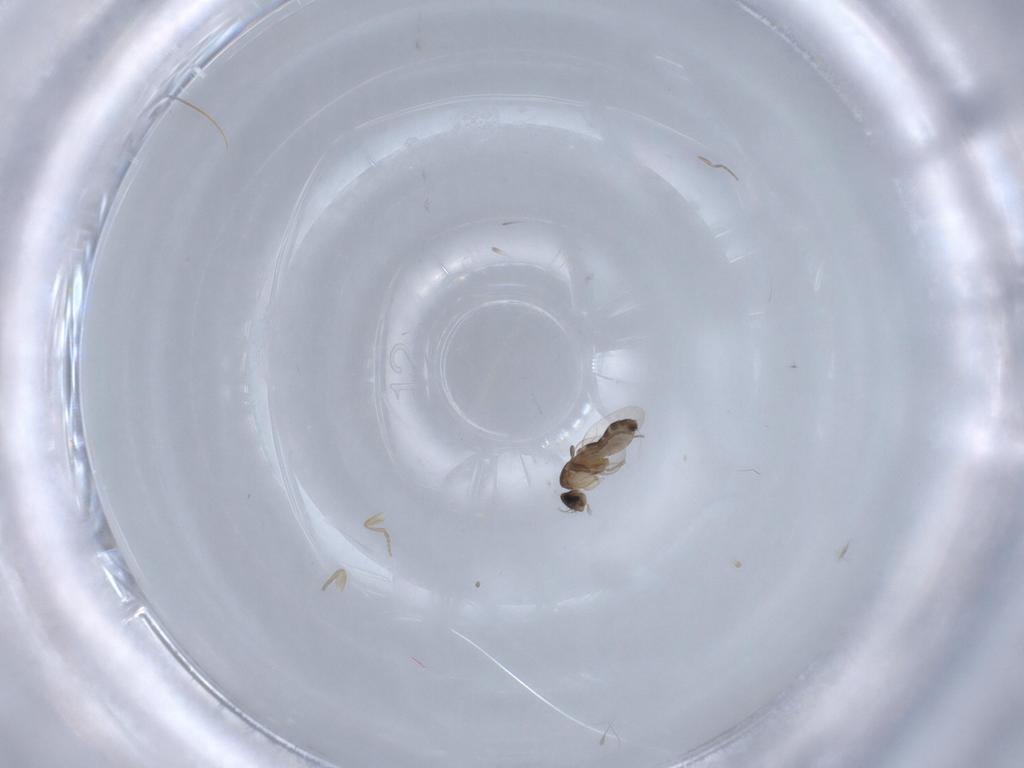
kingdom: Animalia
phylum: Arthropoda
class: Insecta
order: Diptera
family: Phoridae
